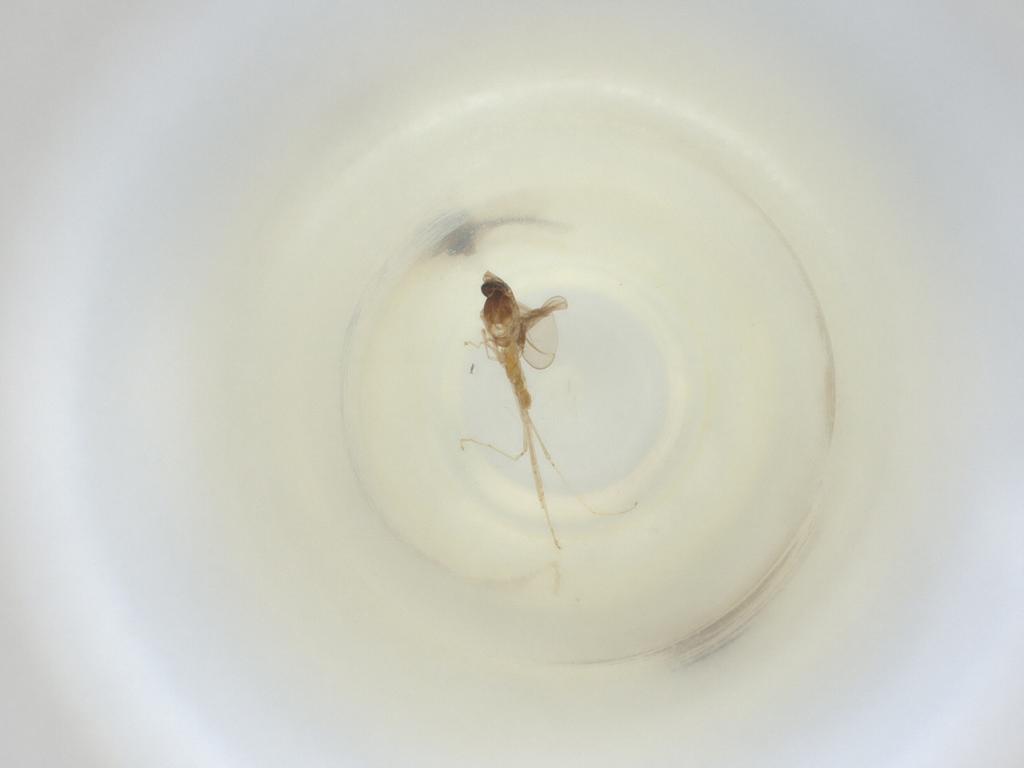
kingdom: Animalia
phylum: Arthropoda
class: Insecta
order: Diptera
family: Cecidomyiidae
